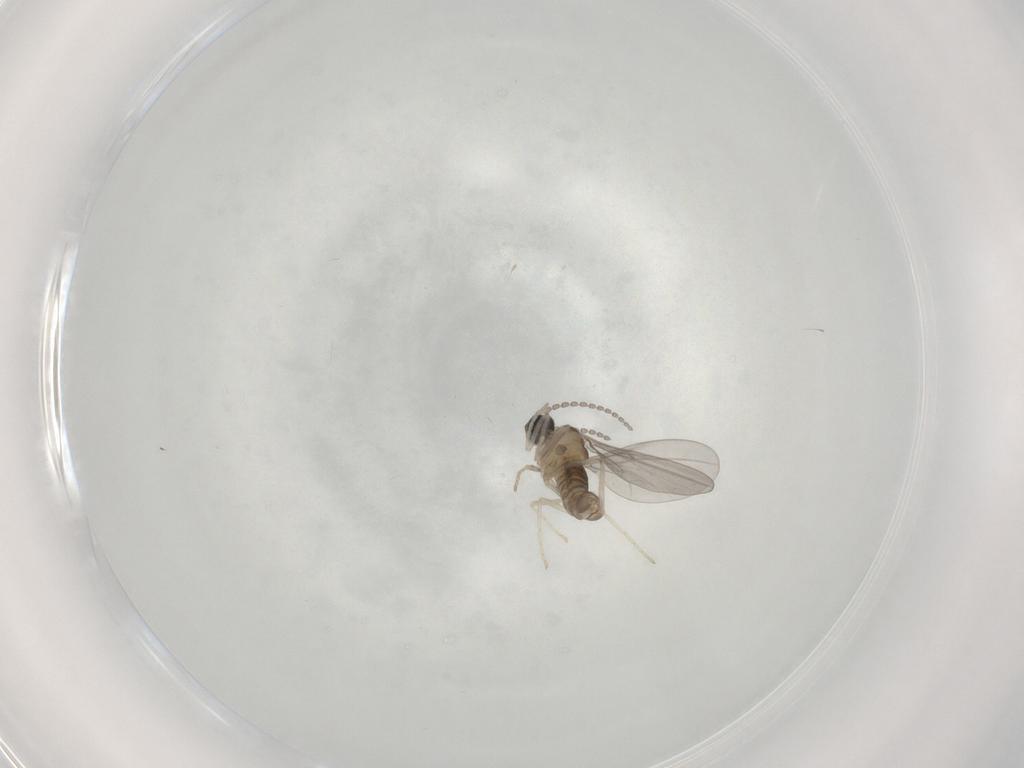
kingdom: Animalia
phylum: Arthropoda
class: Insecta
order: Diptera
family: Cecidomyiidae
